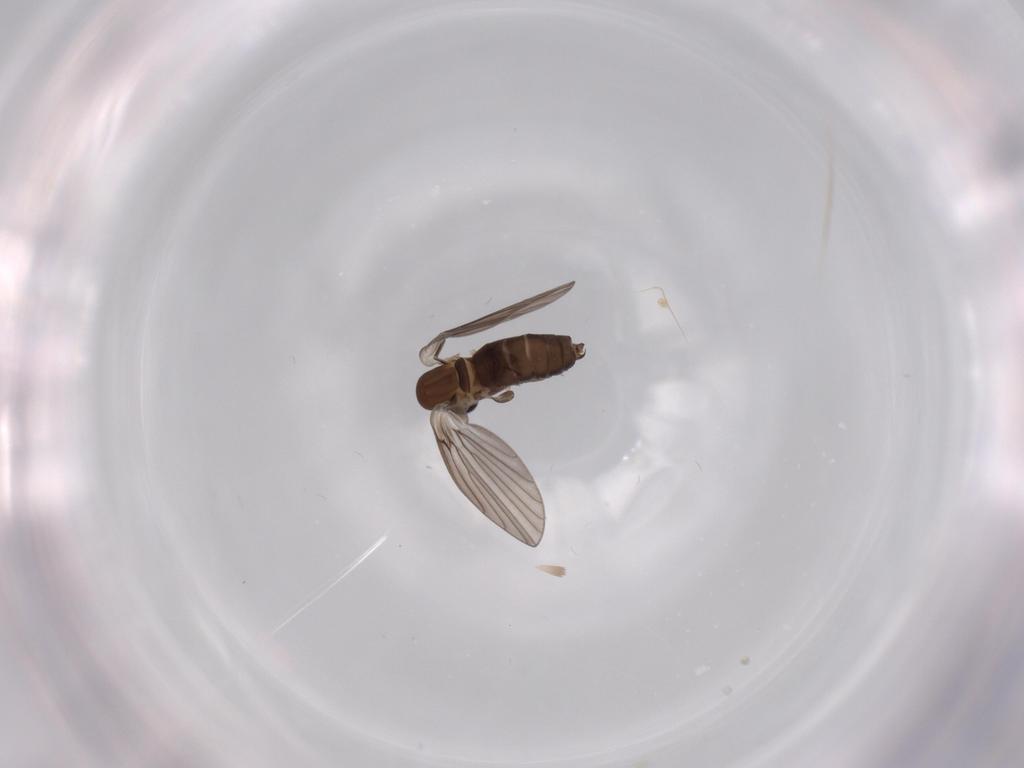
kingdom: Animalia
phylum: Arthropoda
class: Insecta
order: Diptera
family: Psychodidae
